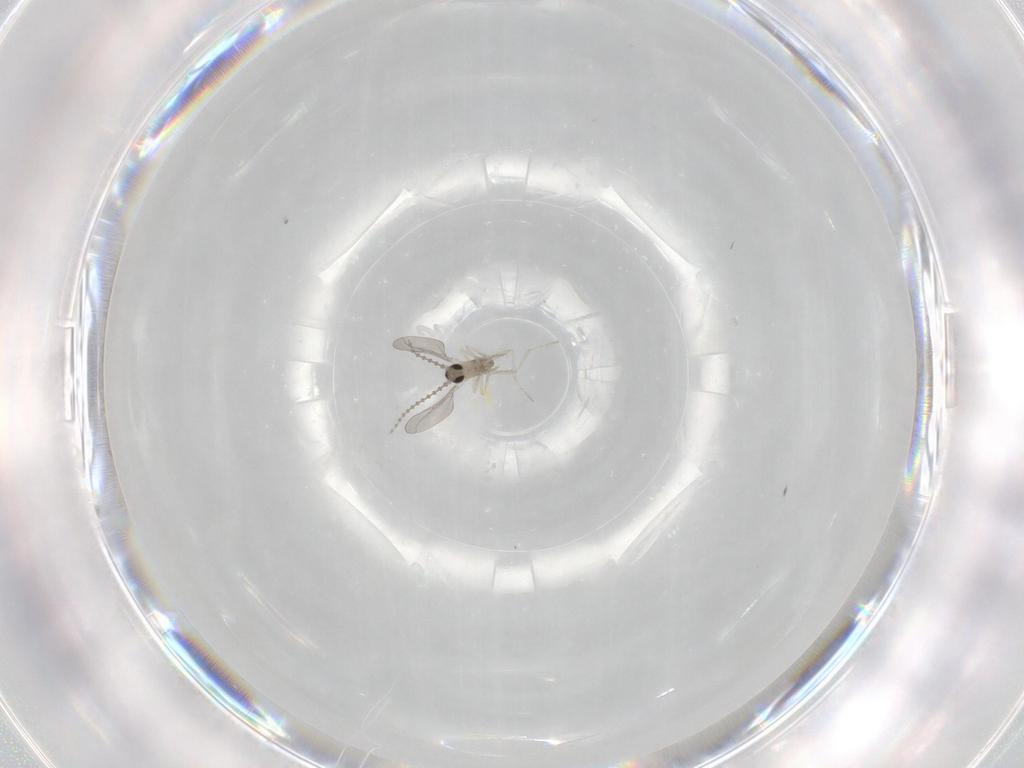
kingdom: Animalia
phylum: Arthropoda
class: Insecta
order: Diptera
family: Cecidomyiidae
